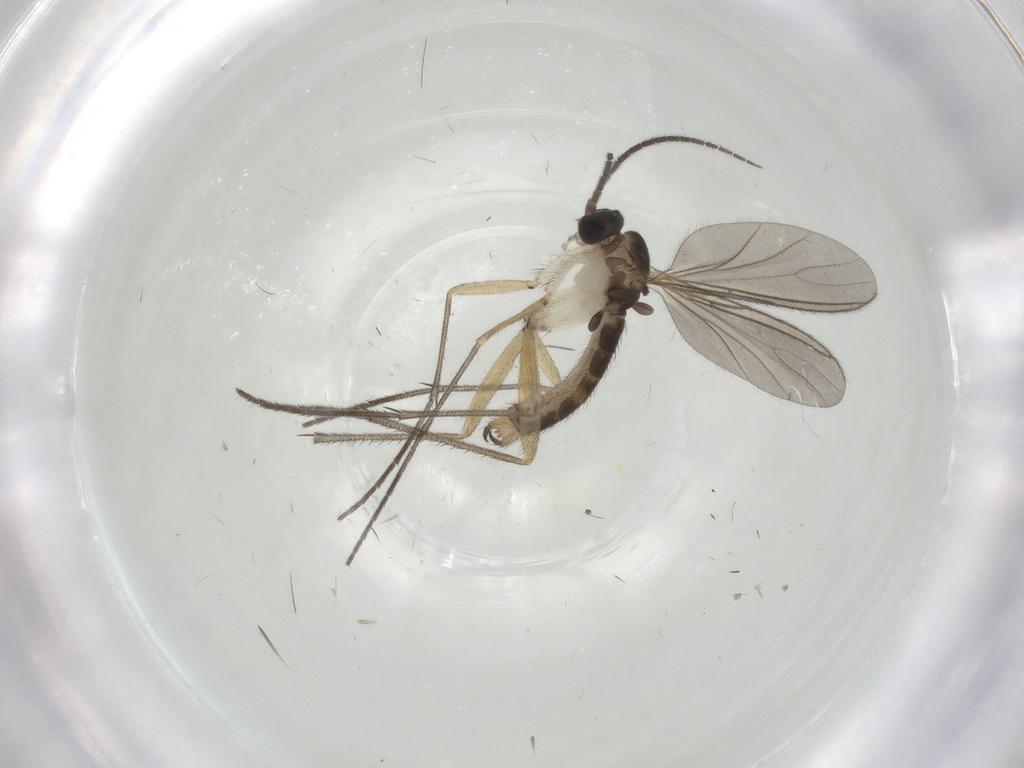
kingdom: Animalia
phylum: Arthropoda
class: Insecta
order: Diptera
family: Sciaridae
